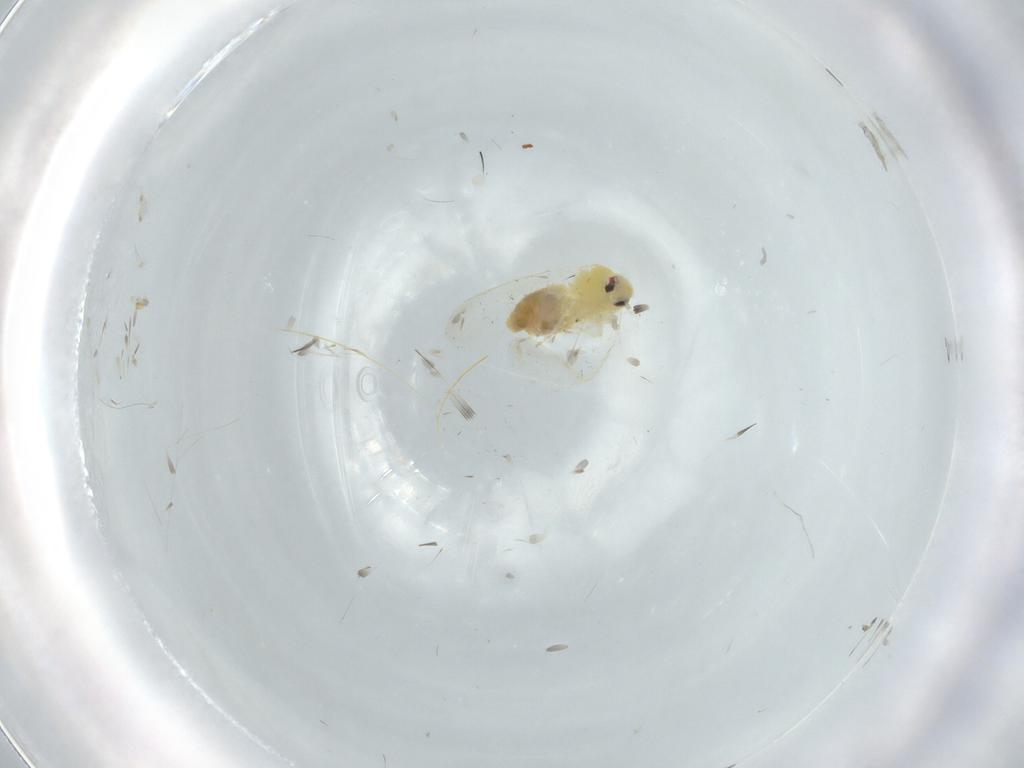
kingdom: Animalia
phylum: Arthropoda
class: Insecta
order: Hemiptera
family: Aleyrodidae
